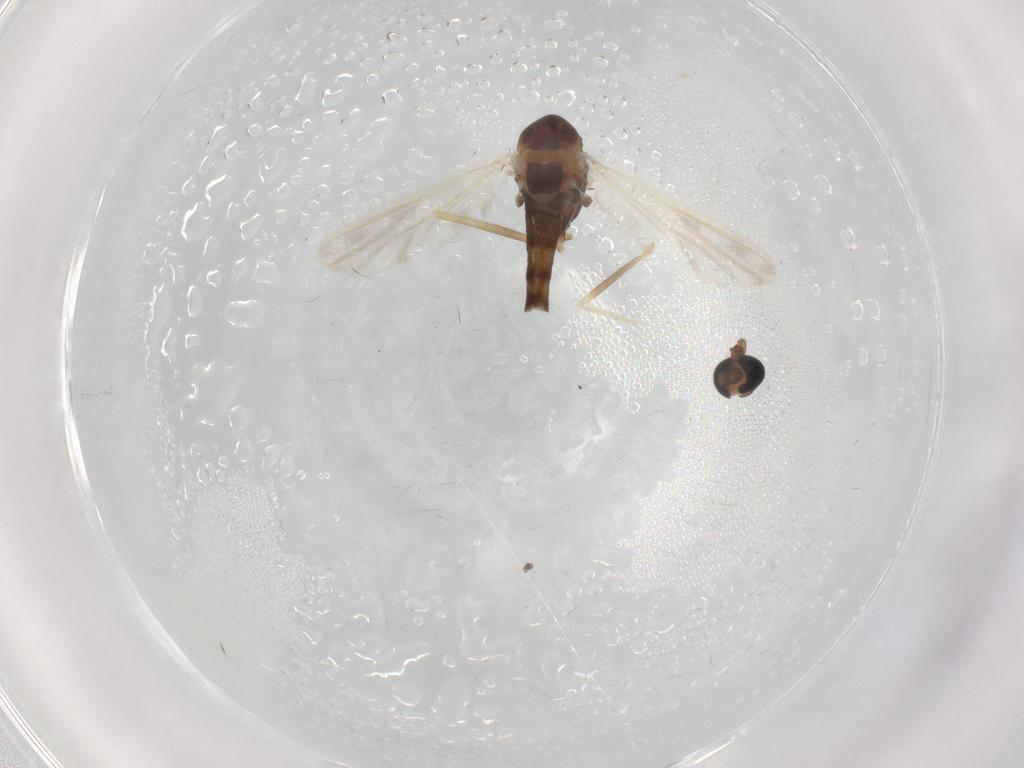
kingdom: Animalia
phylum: Arthropoda
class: Insecta
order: Diptera
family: Chironomidae
